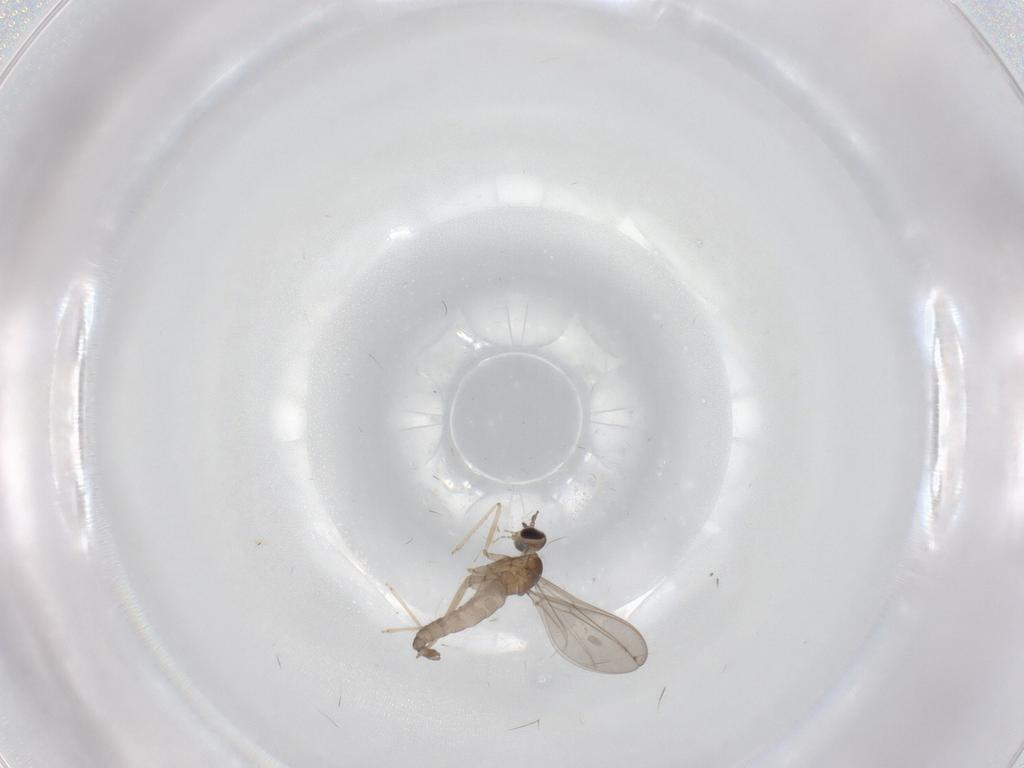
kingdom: Animalia
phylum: Arthropoda
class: Insecta
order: Diptera
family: Cecidomyiidae
